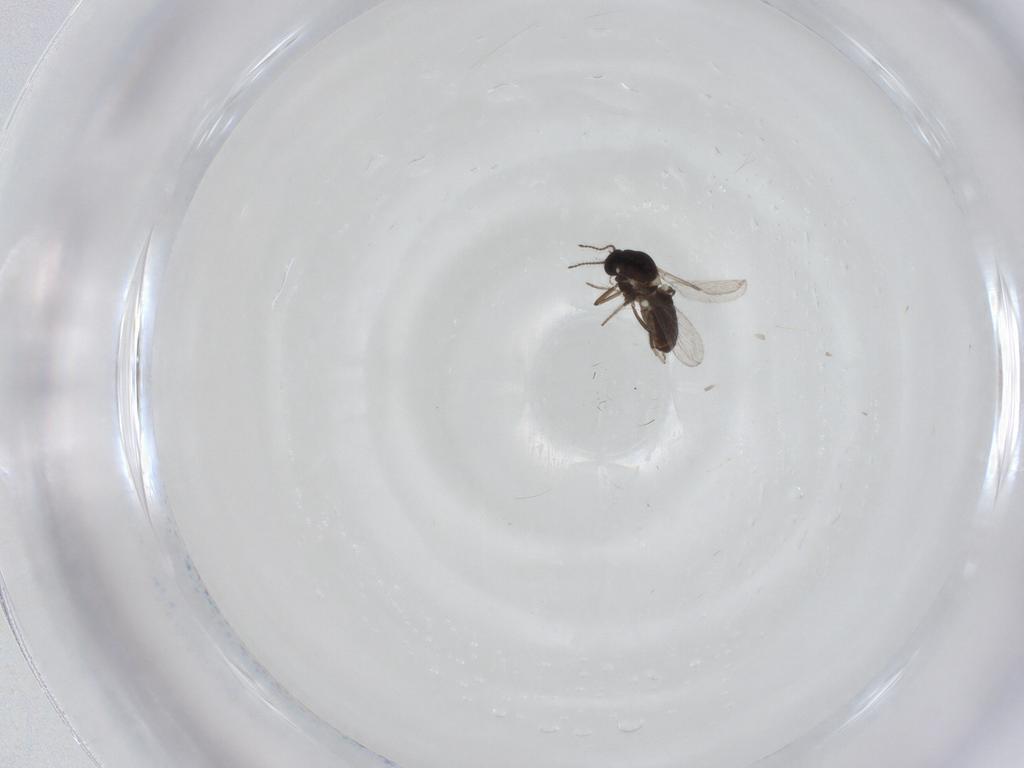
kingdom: Animalia
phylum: Arthropoda
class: Insecta
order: Diptera
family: Ceratopogonidae
